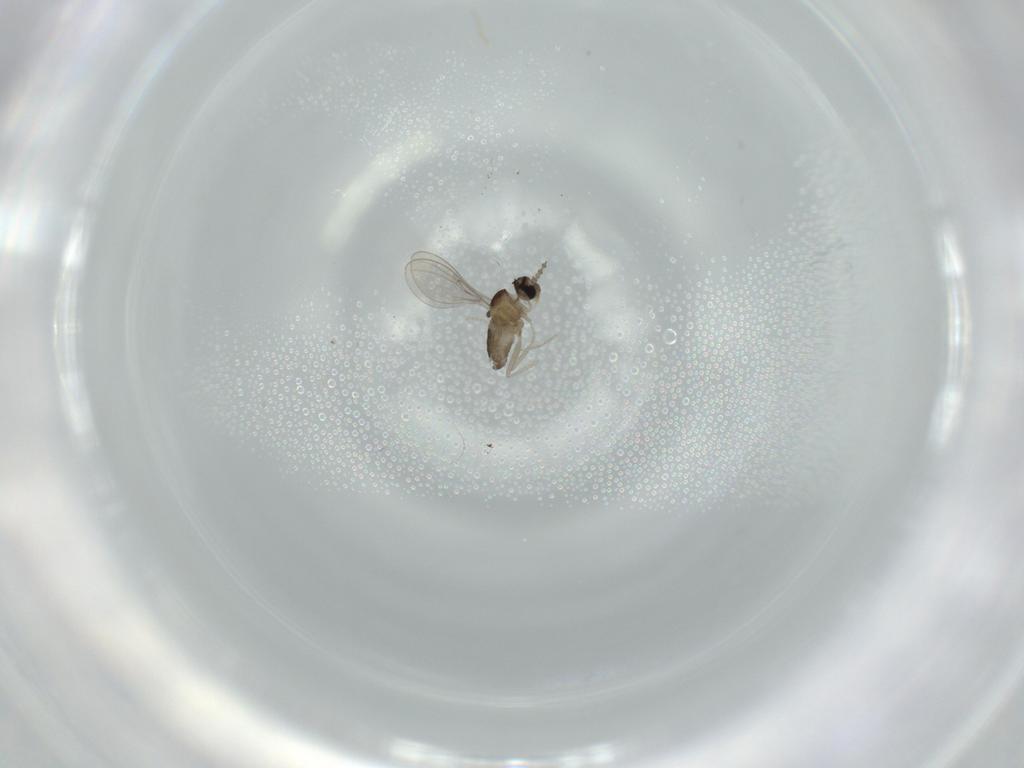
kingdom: Animalia
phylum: Arthropoda
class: Insecta
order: Diptera
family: Cecidomyiidae
